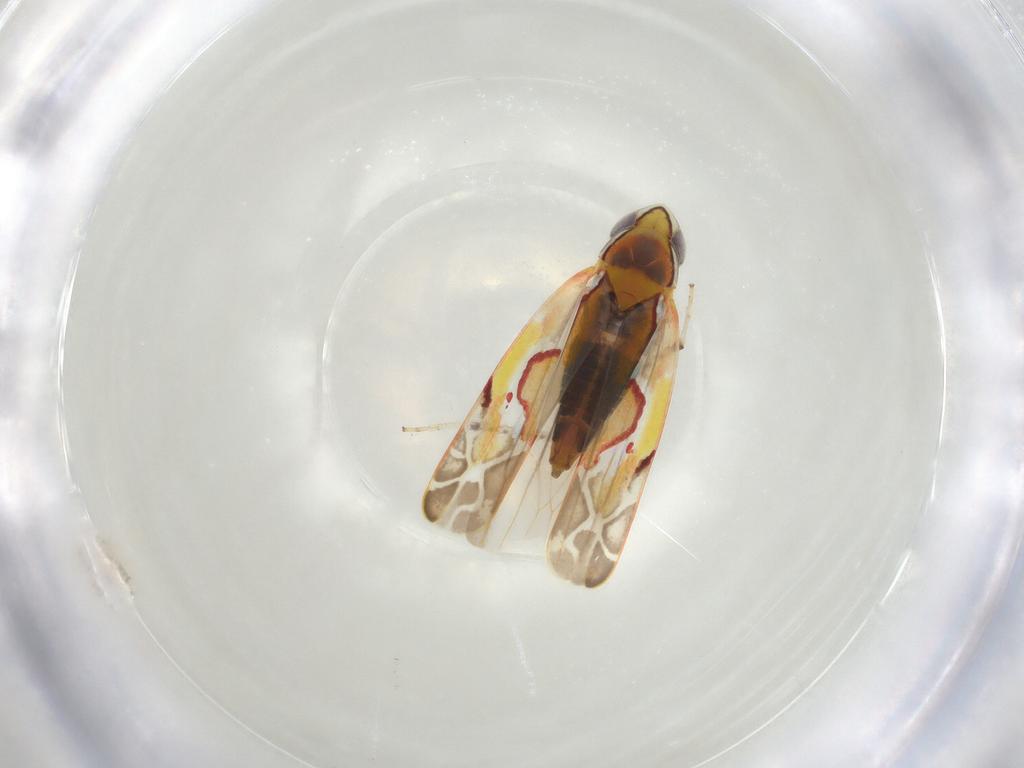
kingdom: Animalia
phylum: Arthropoda
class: Insecta
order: Hemiptera
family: Cicadellidae
